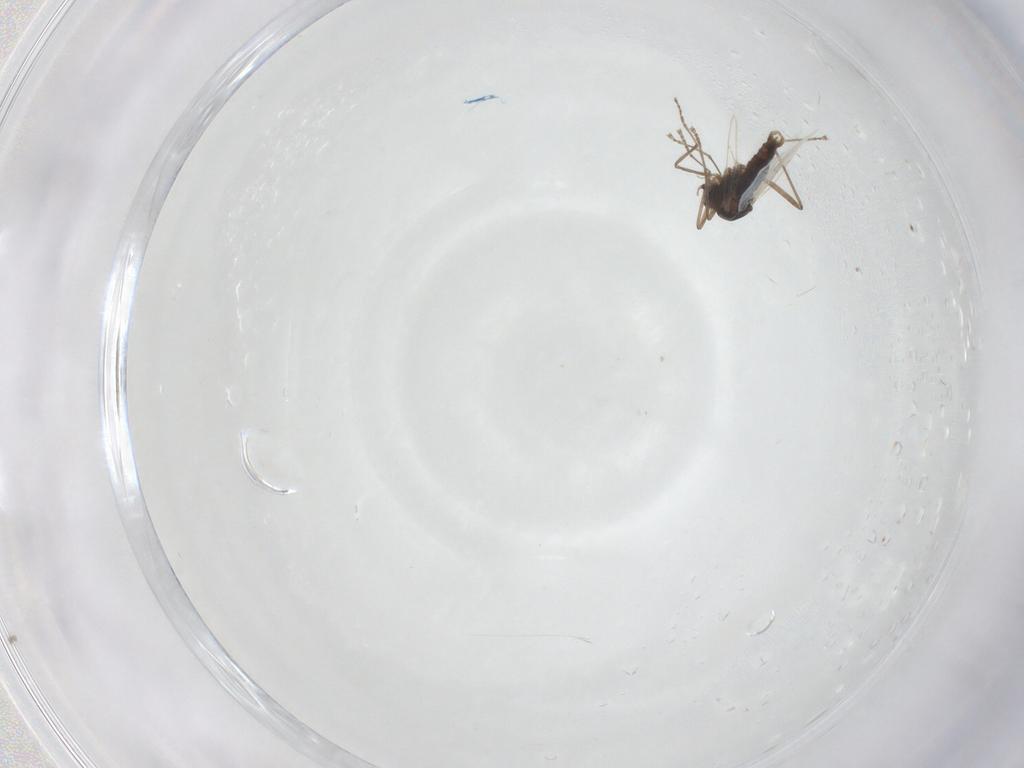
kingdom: Animalia
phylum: Arthropoda
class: Insecta
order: Diptera
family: Cecidomyiidae
